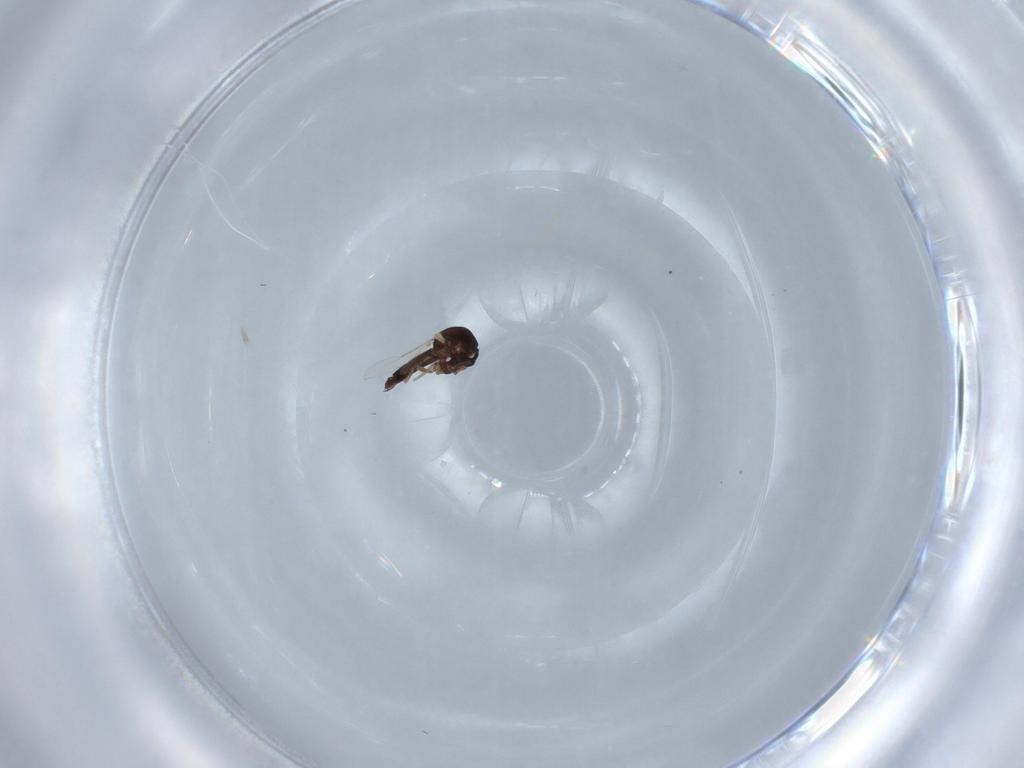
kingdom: Animalia
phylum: Arthropoda
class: Insecta
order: Diptera
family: Ceratopogonidae
